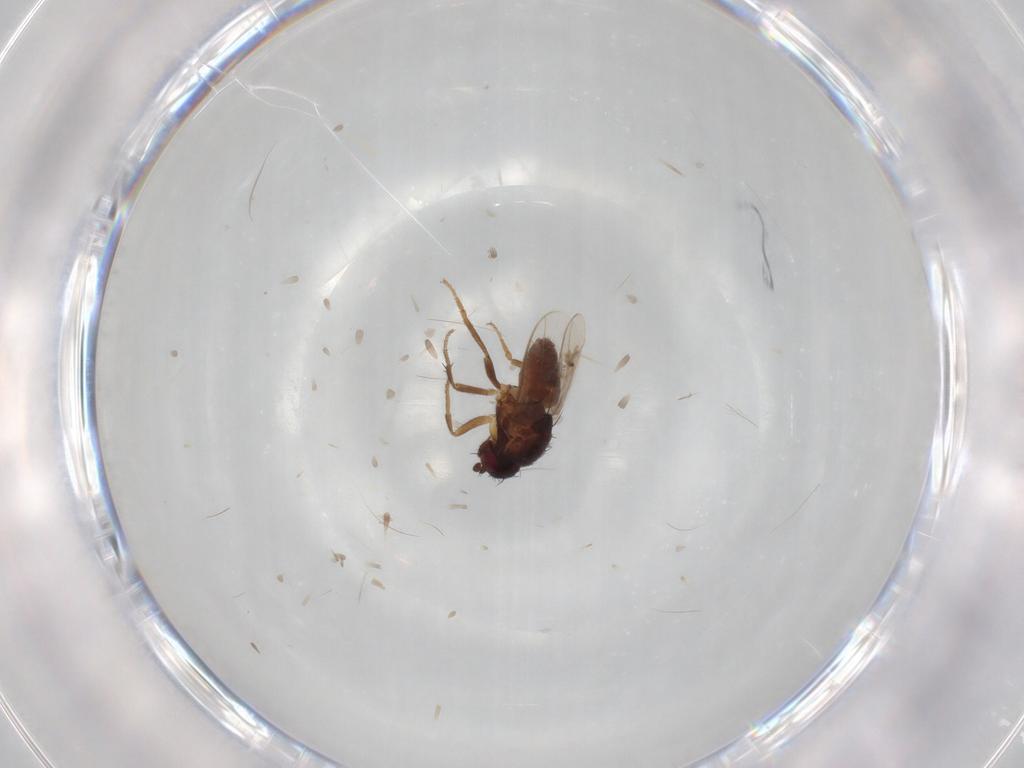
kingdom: Animalia
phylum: Arthropoda
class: Insecta
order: Diptera
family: Sphaeroceridae
